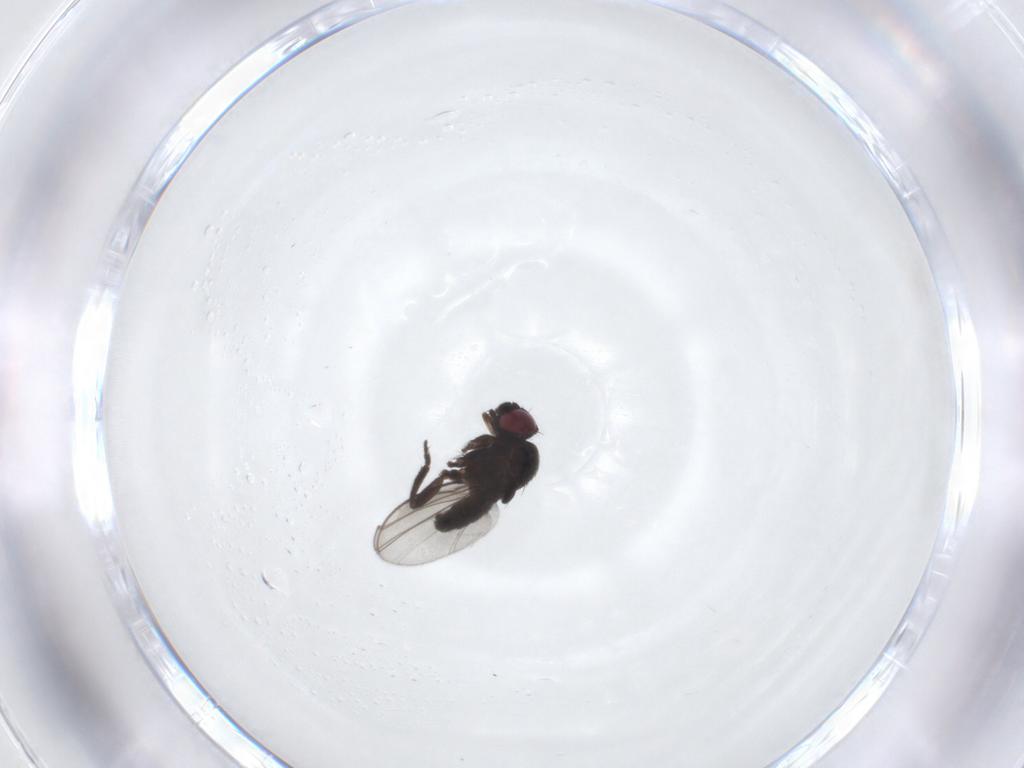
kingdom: Animalia
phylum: Arthropoda
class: Insecta
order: Diptera
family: Milichiidae
